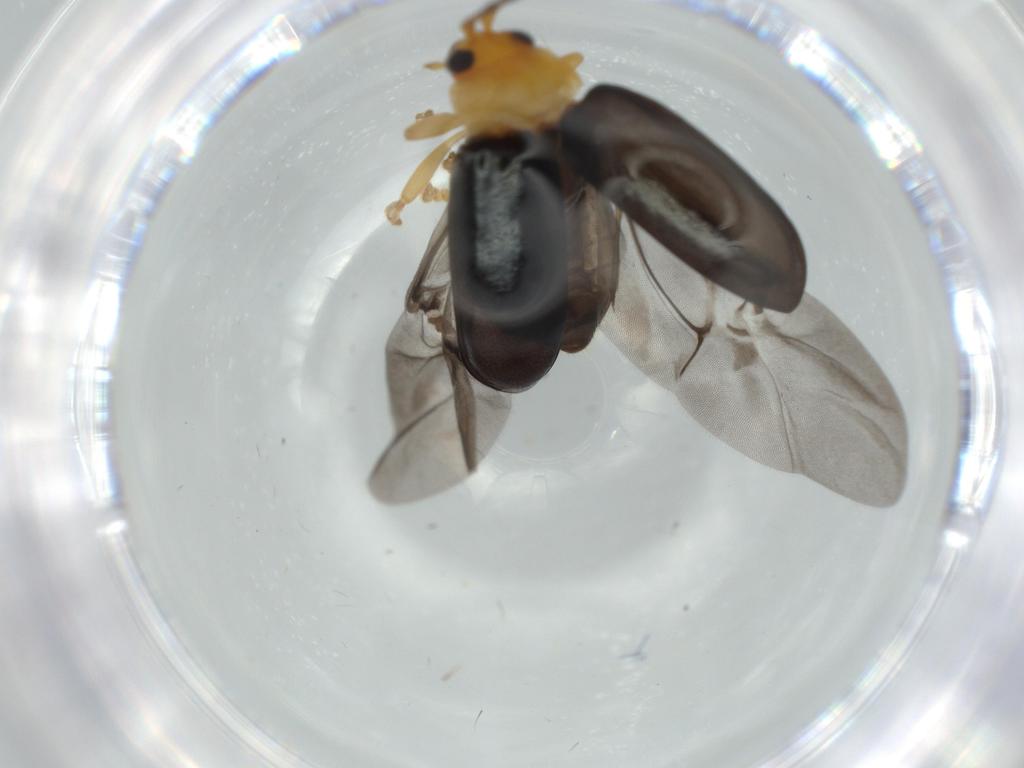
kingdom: Animalia
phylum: Arthropoda
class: Insecta
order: Coleoptera
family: Chrysomelidae
